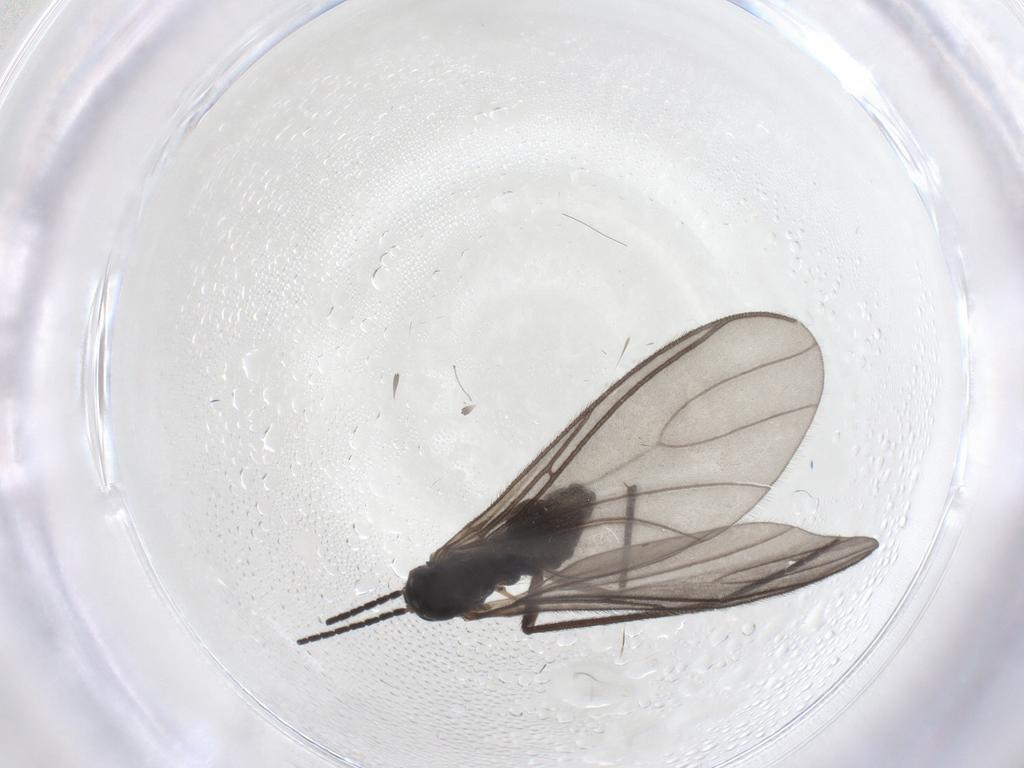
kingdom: Animalia
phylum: Arthropoda
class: Insecta
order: Diptera
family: Sciaridae
